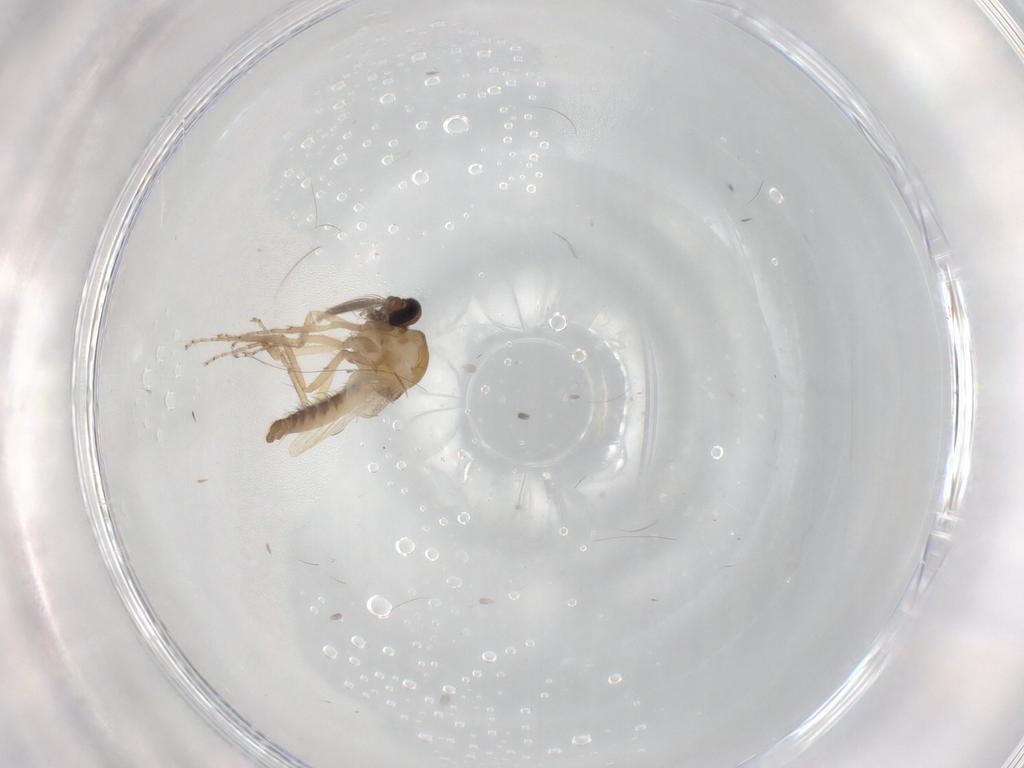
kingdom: Animalia
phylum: Arthropoda
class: Insecta
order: Diptera
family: Ceratopogonidae
